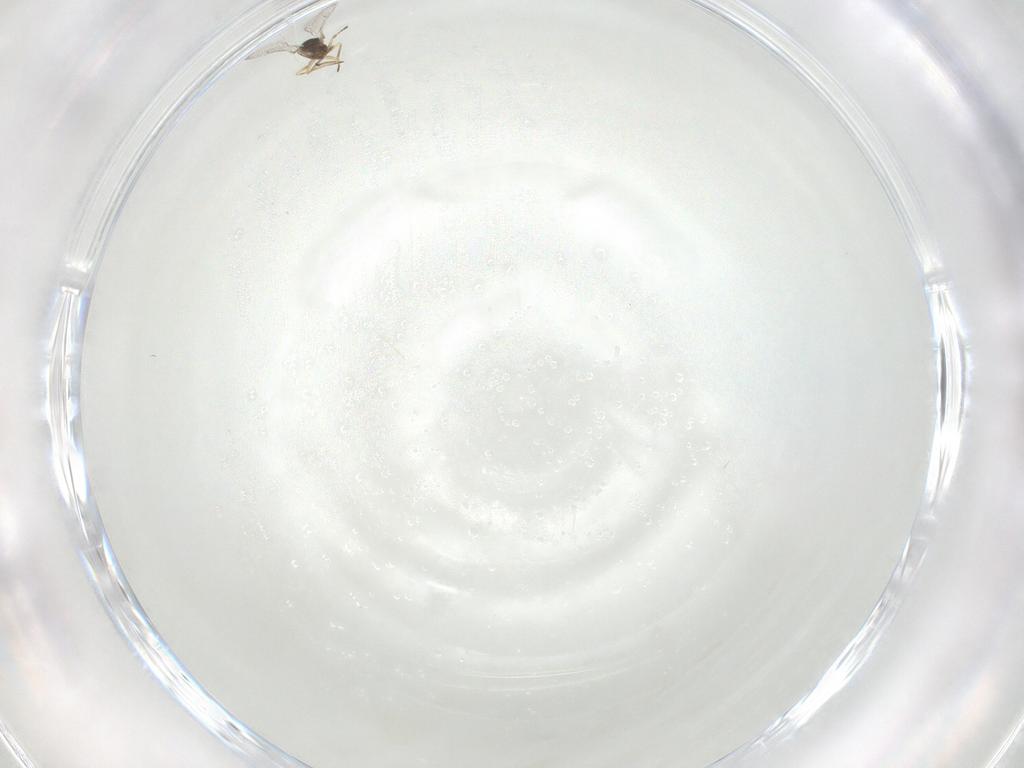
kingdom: Animalia
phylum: Arthropoda
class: Insecta
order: Hymenoptera
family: Eulophidae
